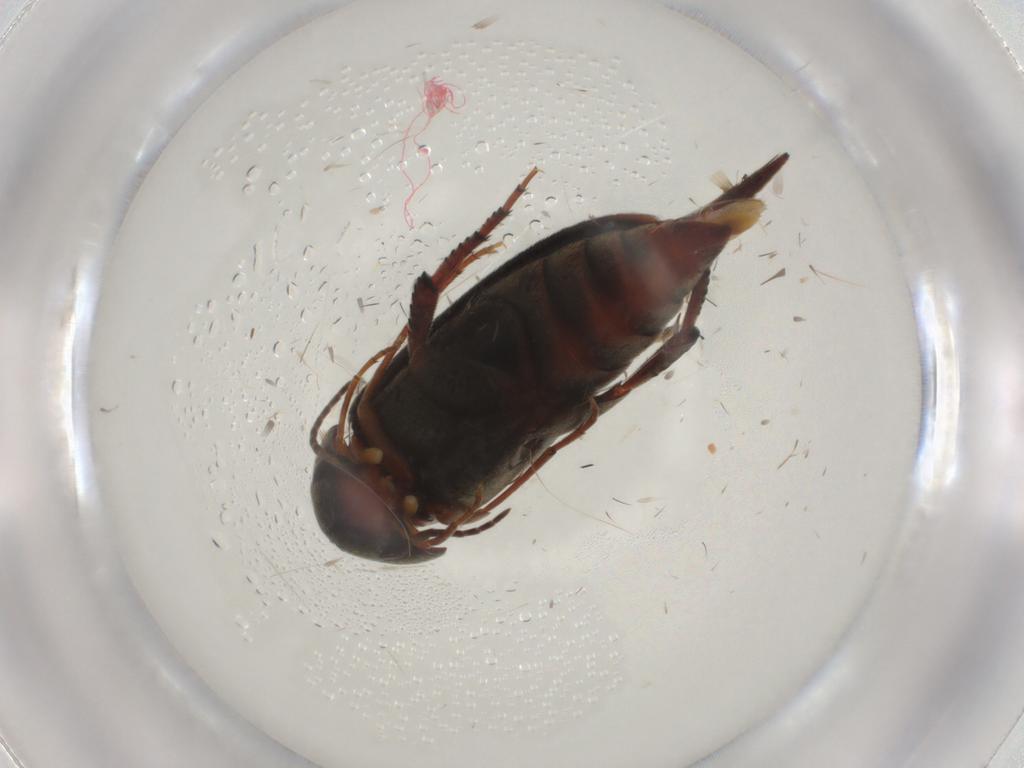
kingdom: Animalia
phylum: Arthropoda
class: Insecta
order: Coleoptera
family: Mordellidae
